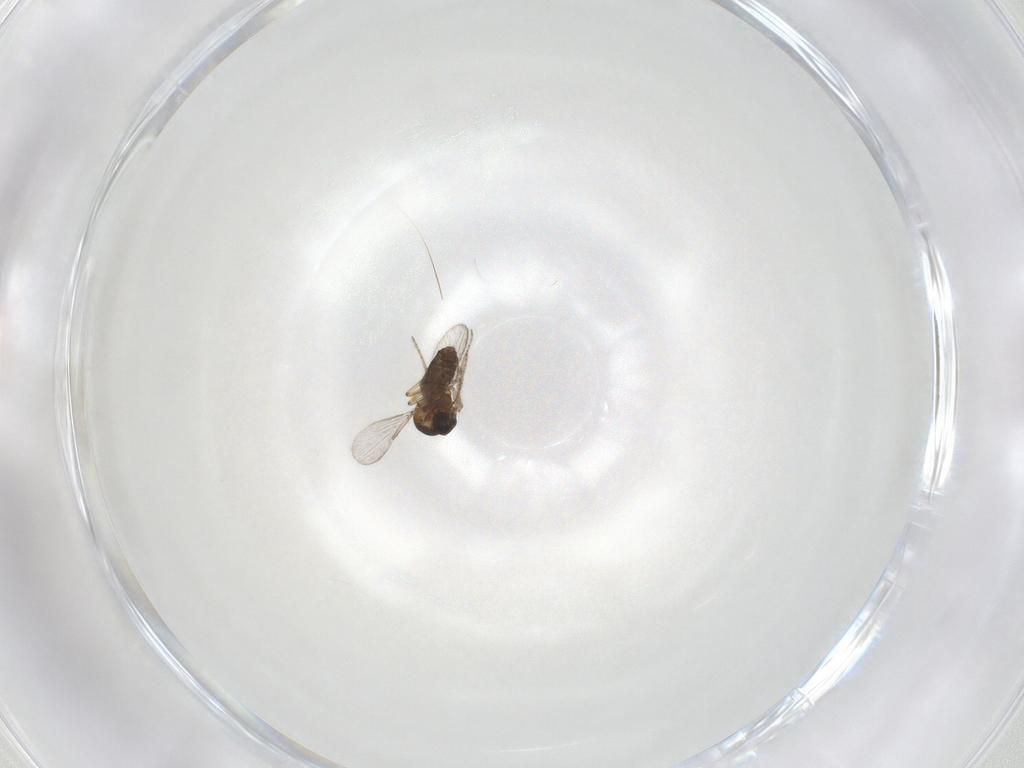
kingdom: Animalia
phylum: Arthropoda
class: Insecta
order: Diptera
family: Ceratopogonidae
